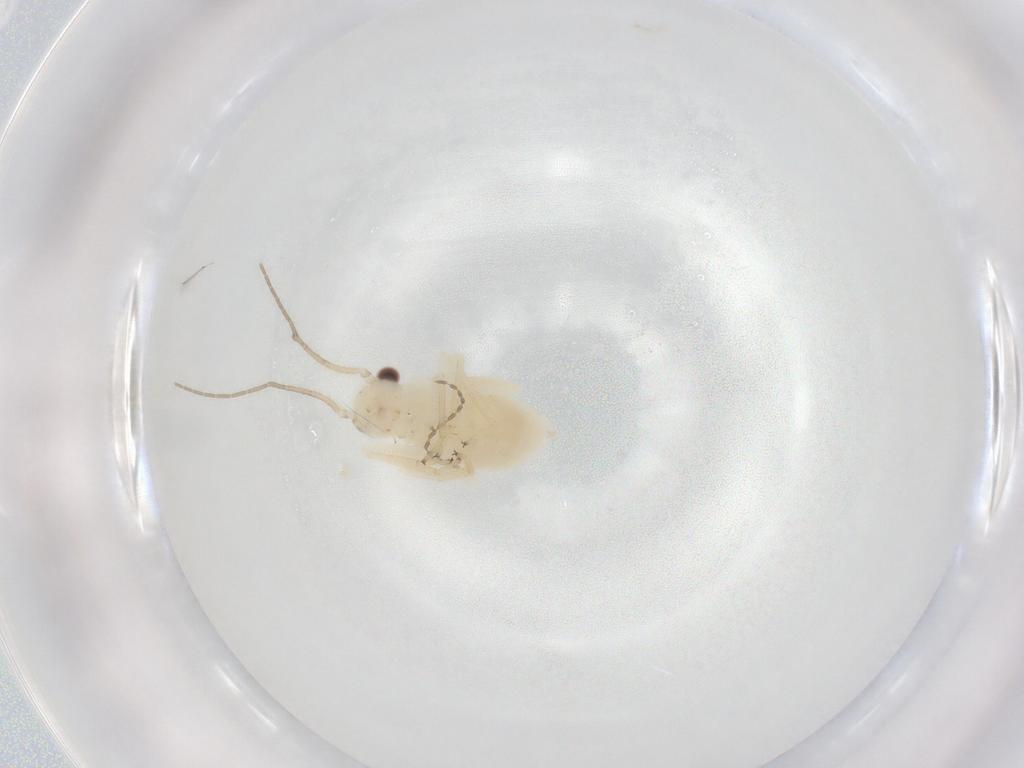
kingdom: Animalia
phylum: Arthropoda
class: Insecta
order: Psocodea
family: Philotarsidae
